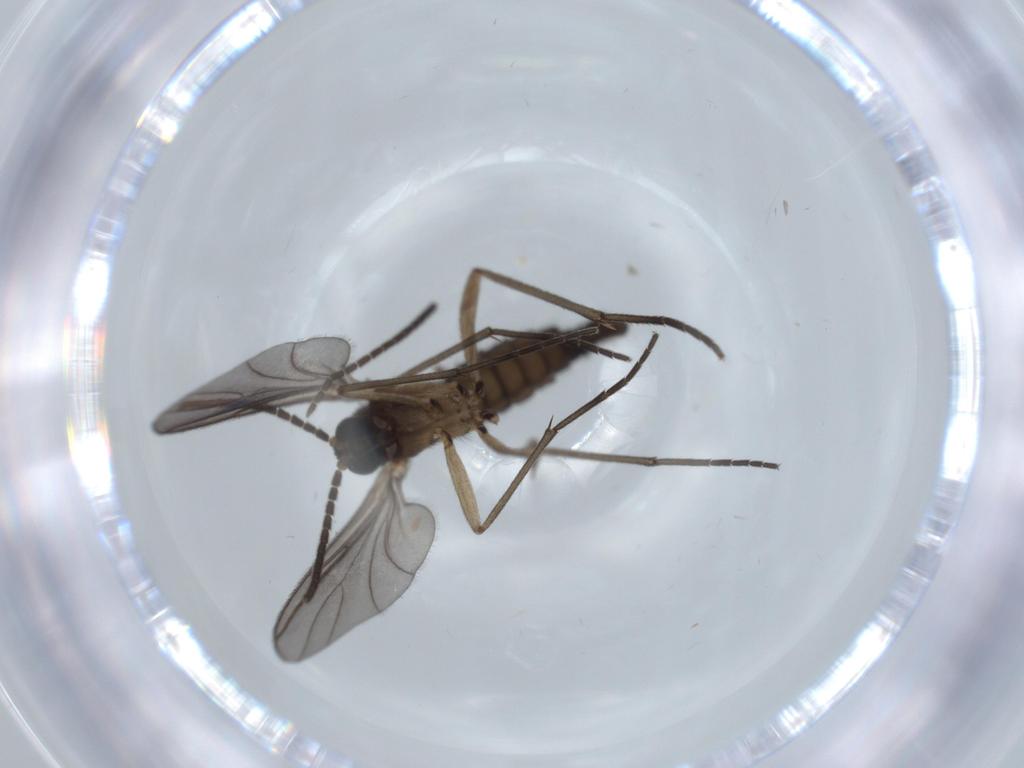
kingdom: Animalia
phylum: Arthropoda
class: Insecta
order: Diptera
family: Sciaridae
